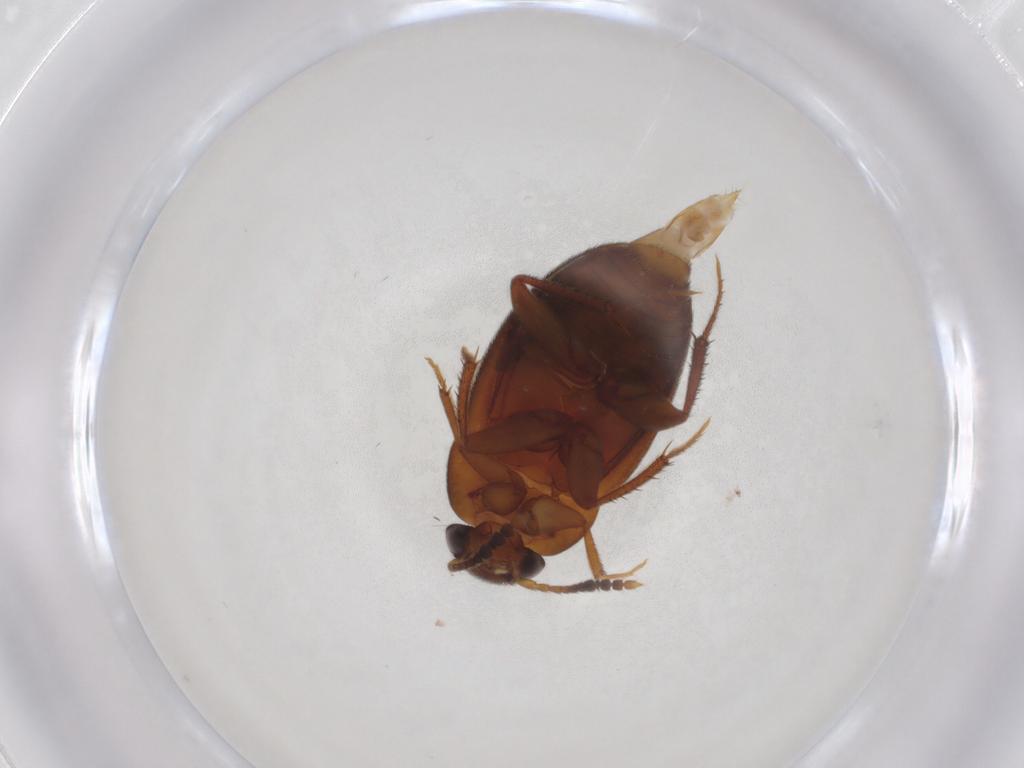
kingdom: Animalia
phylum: Arthropoda
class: Insecta
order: Coleoptera
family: Leiodidae
